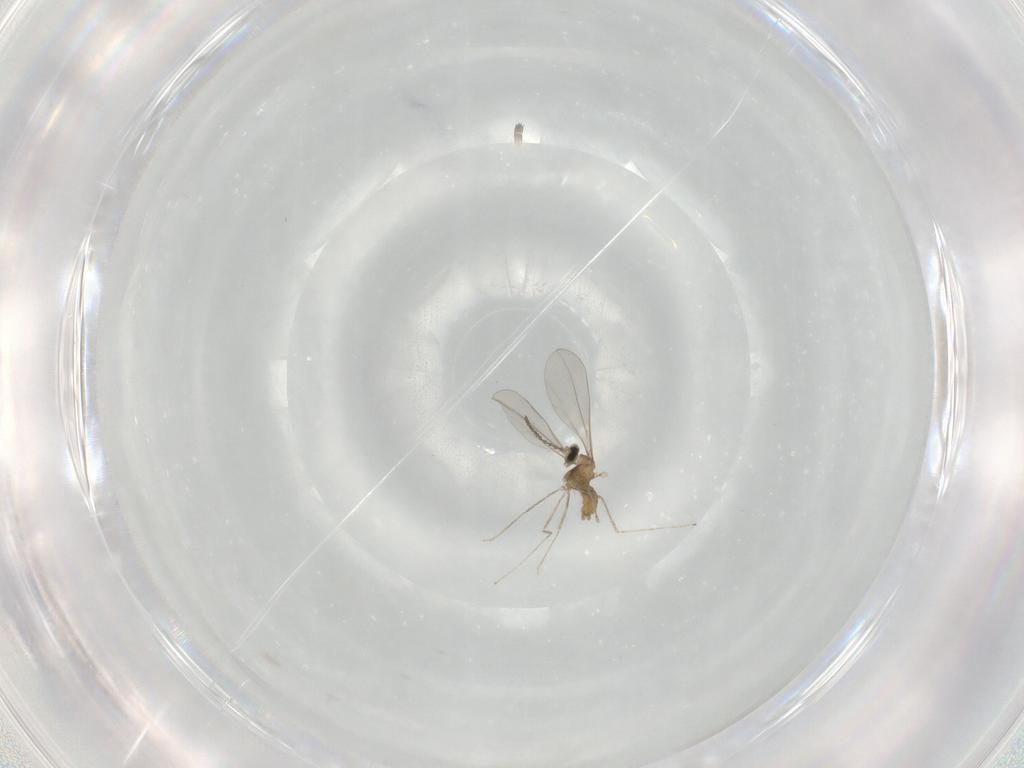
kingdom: Animalia
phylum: Arthropoda
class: Insecta
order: Diptera
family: Cecidomyiidae
